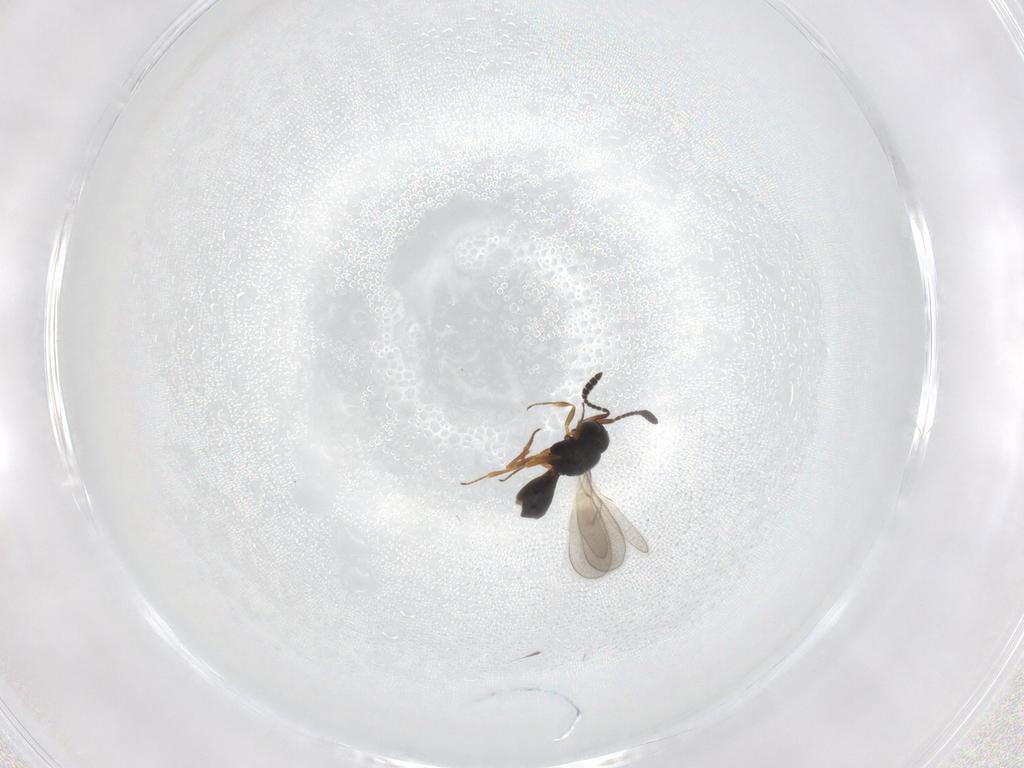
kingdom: Animalia
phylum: Arthropoda
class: Insecta
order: Hymenoptera
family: Scelionidae
